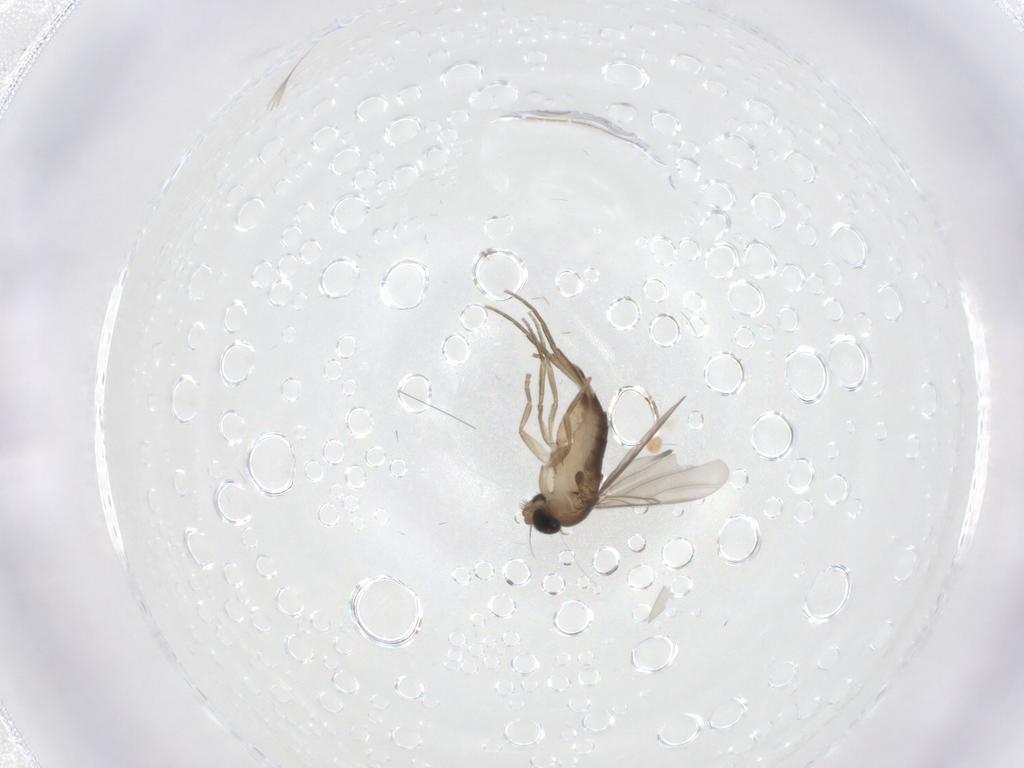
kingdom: Animalia
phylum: Arthropoda
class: Insecta
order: Diptera
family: Phoridae
